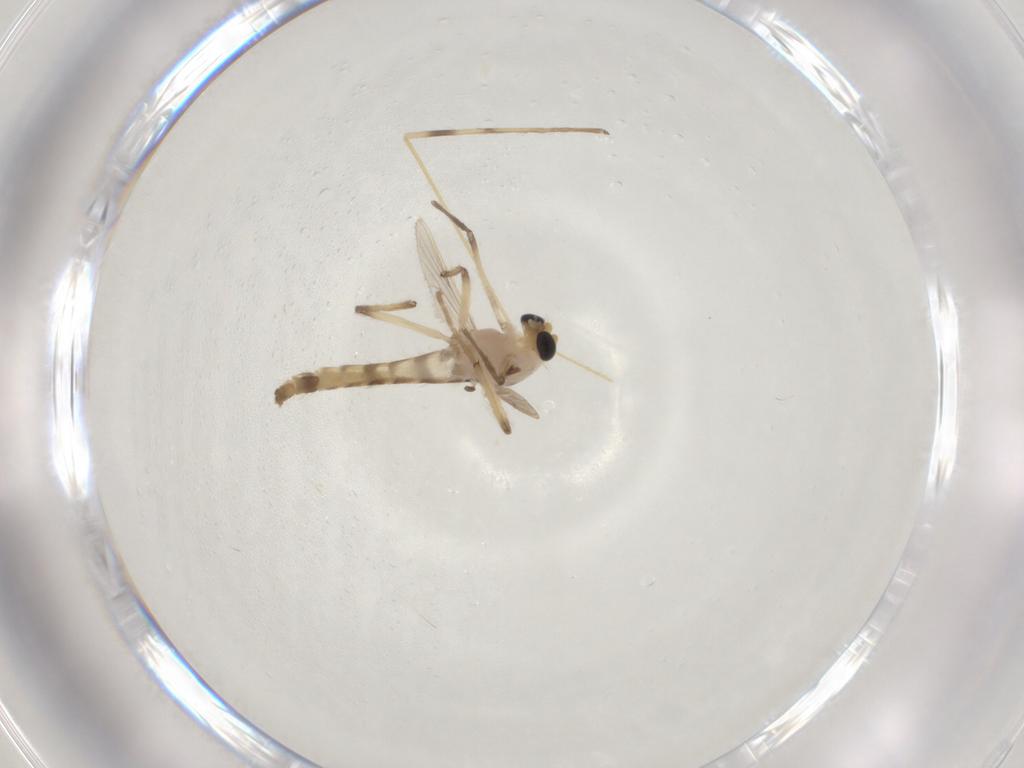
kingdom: Animalia
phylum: Arthropoda
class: Insecta
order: Diptera
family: Chironomidae
